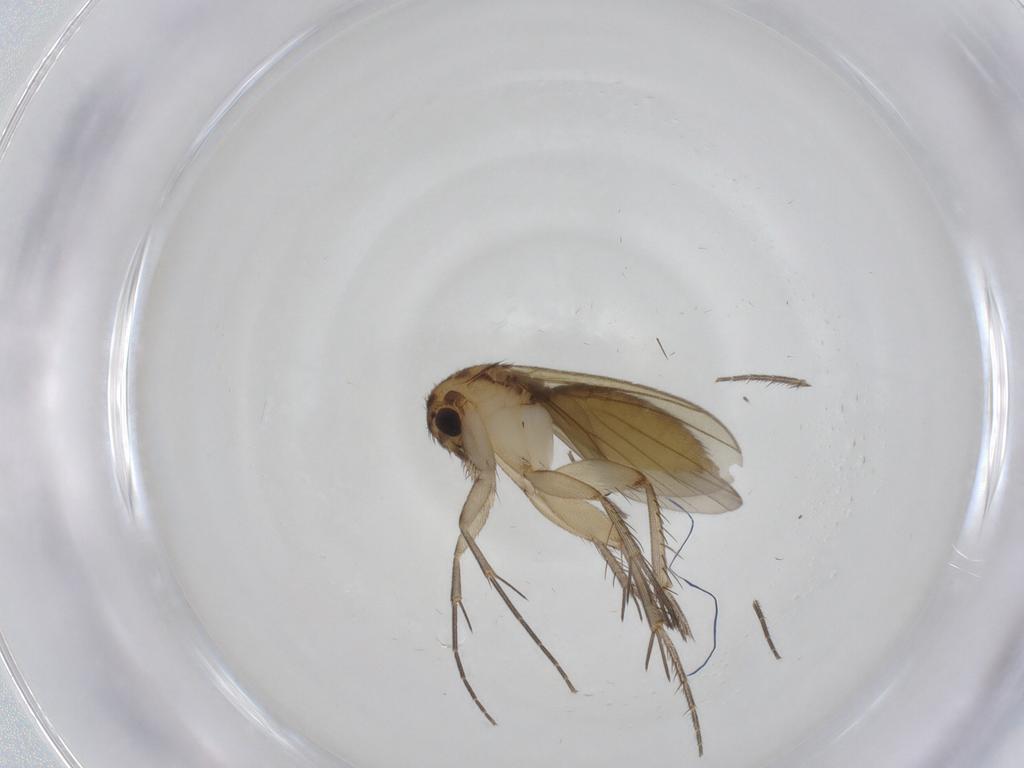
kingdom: Animalia
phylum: Arthropoda
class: Insecta
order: Diptera
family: Mycetophilidae
